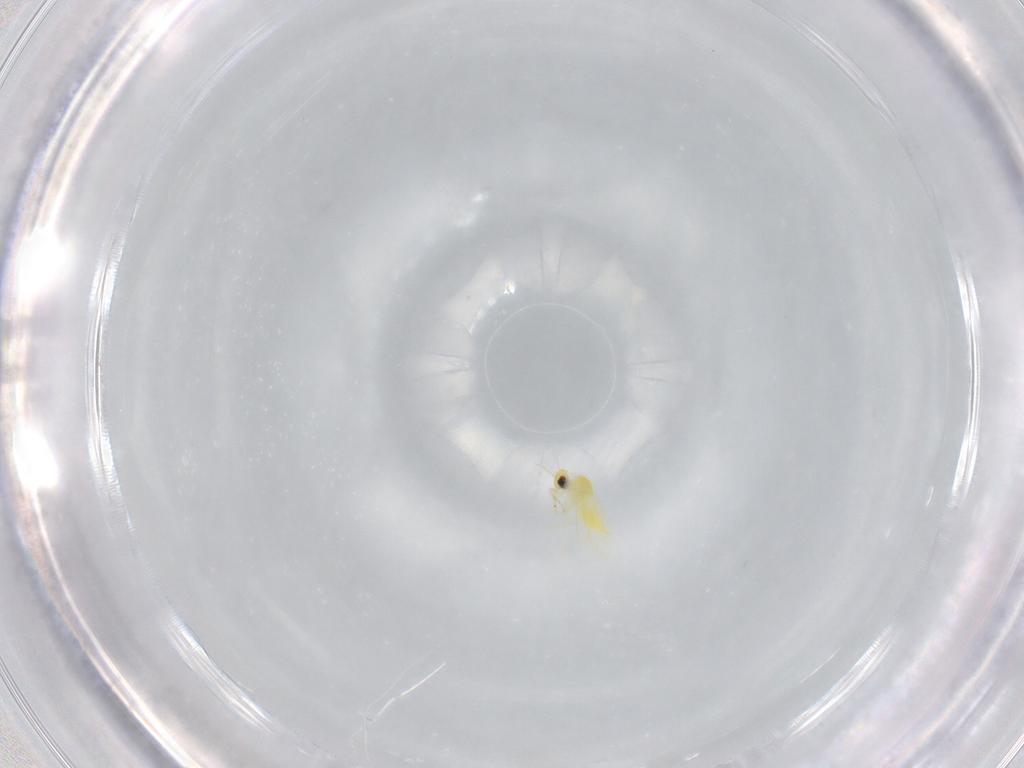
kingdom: Animalia
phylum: Arthropoda
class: Insecta
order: Hemiptera
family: Aleyrodidae
